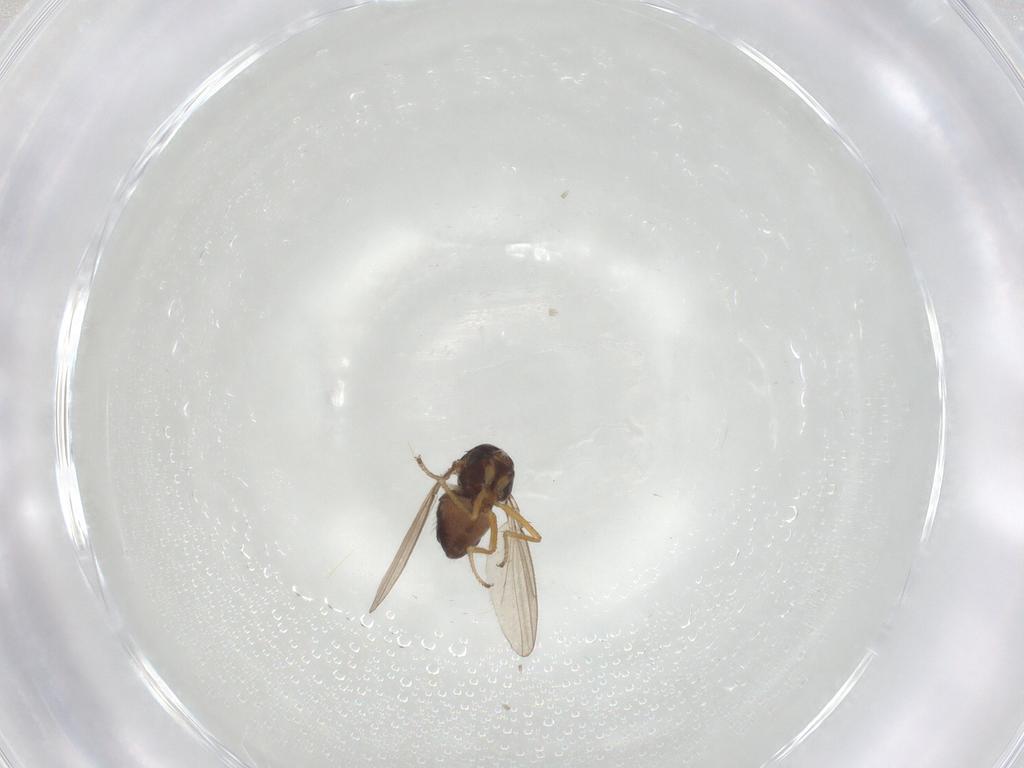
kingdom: Animalia
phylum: Arthropoda
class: Insecta
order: Diptera
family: Ephydridae
